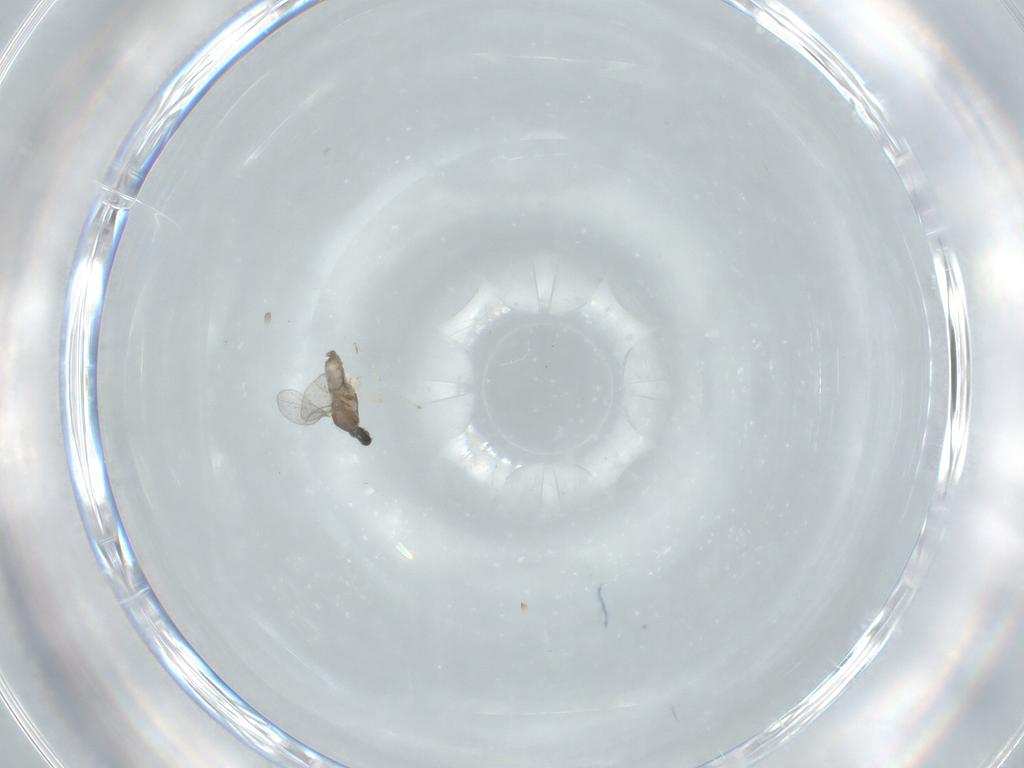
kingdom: Animalia
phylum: Arthropoda
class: Insecta
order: Diptera
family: Cecidomyiidae
